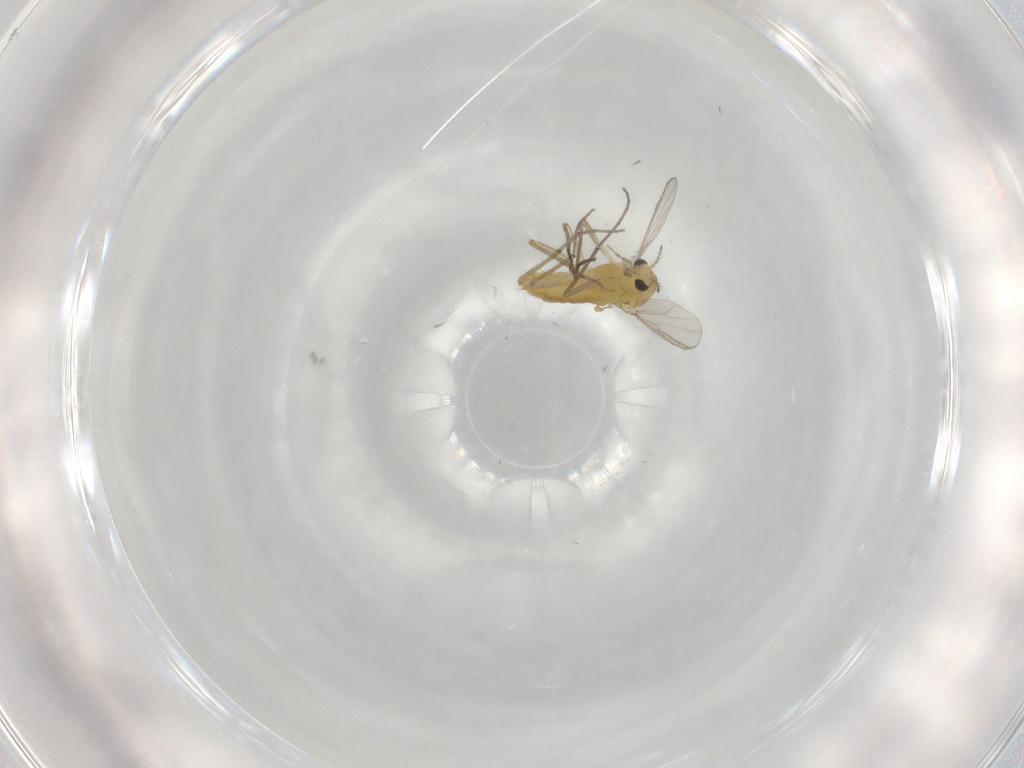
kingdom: Animalia
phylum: Arthropoda
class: Insecta
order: Diptera
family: Chironomidae
